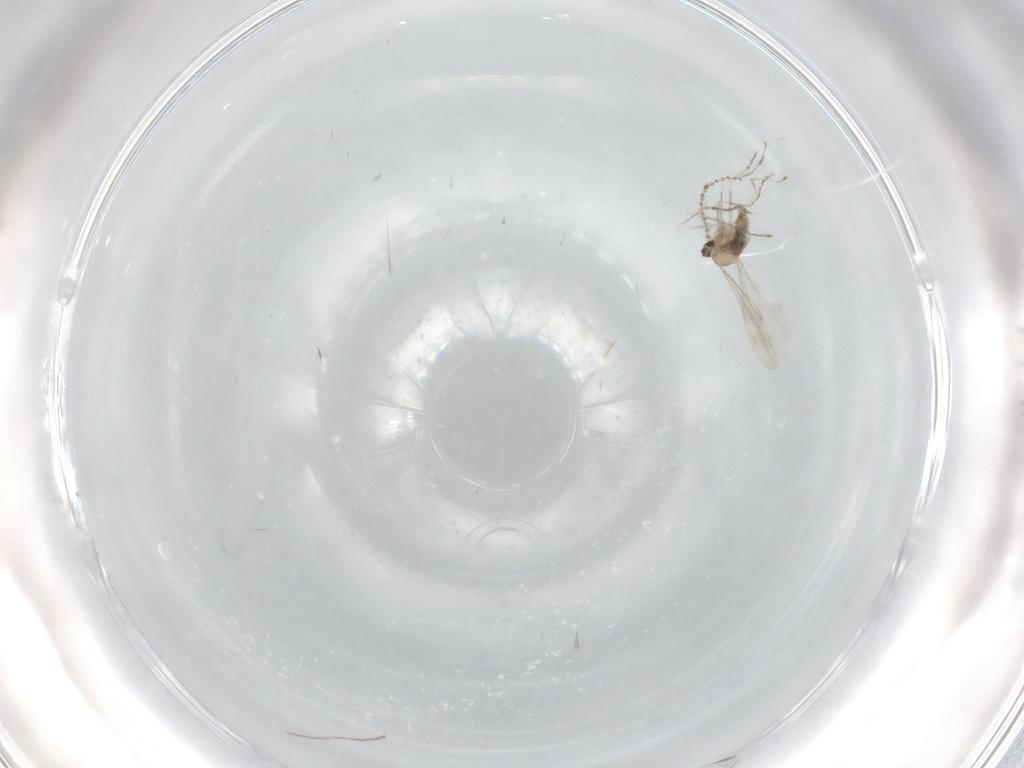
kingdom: Animalia
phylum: Arthropoda
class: Insecta
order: Diptera
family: Cecidomyiidae
